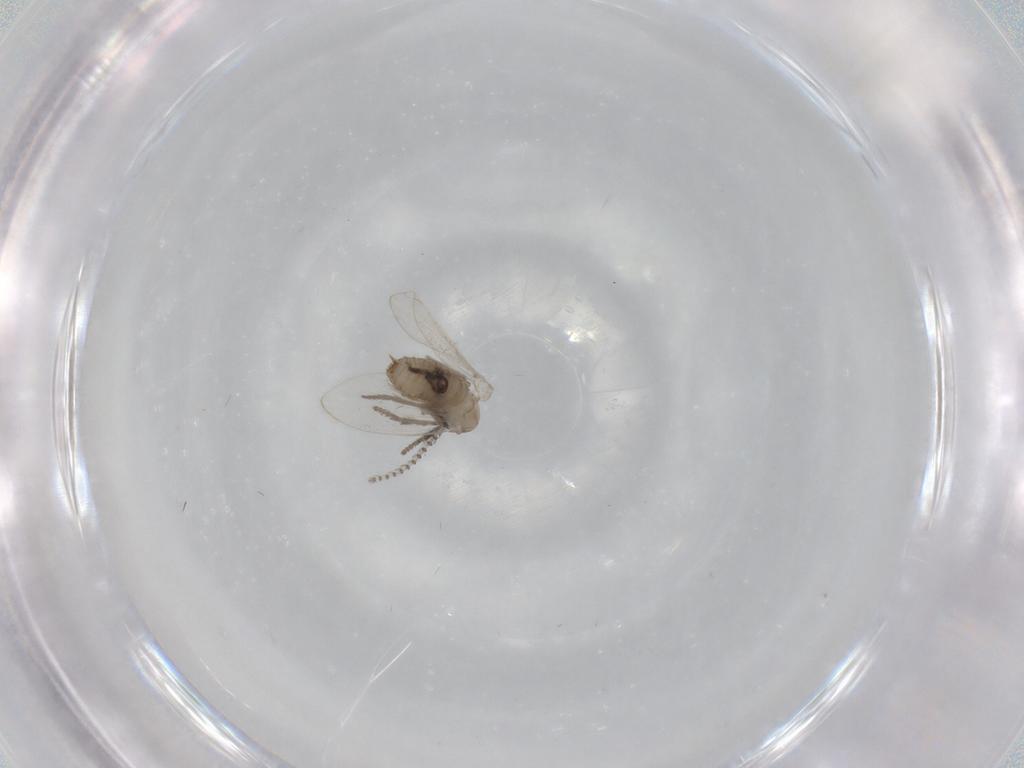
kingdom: Animalia
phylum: Arthropoda
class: Insecta
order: Diptera
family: Psychodidae
